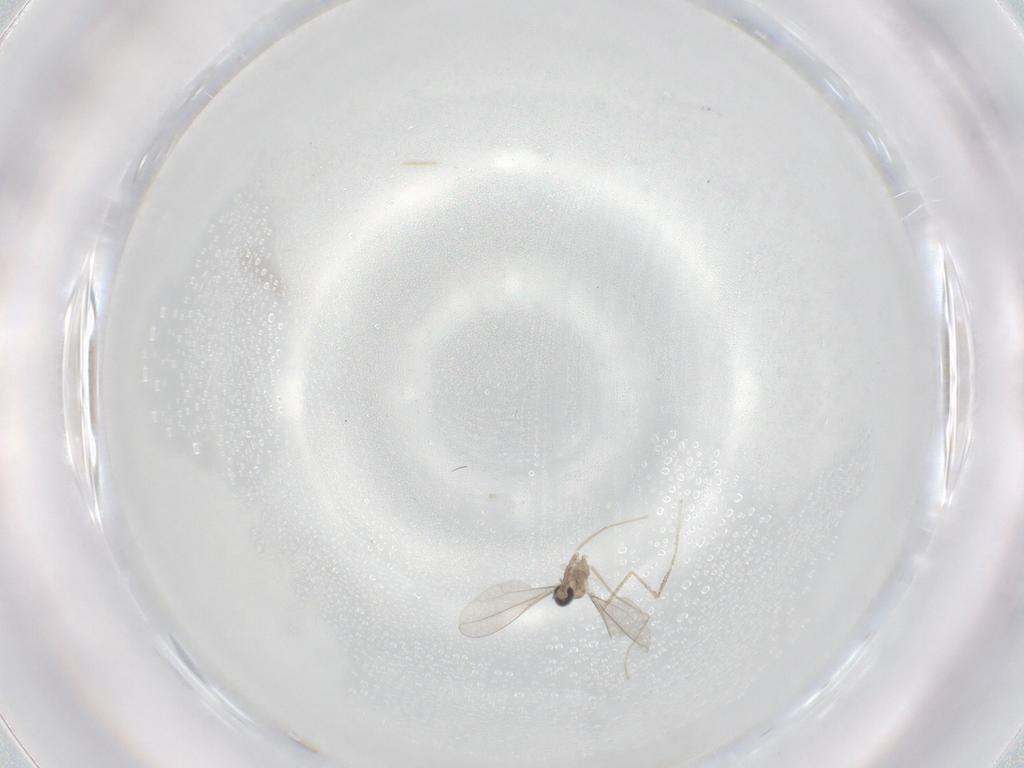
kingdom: Animalia
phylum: Arthropoda
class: Insecta
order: Diptera
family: Cecidomyiidae
